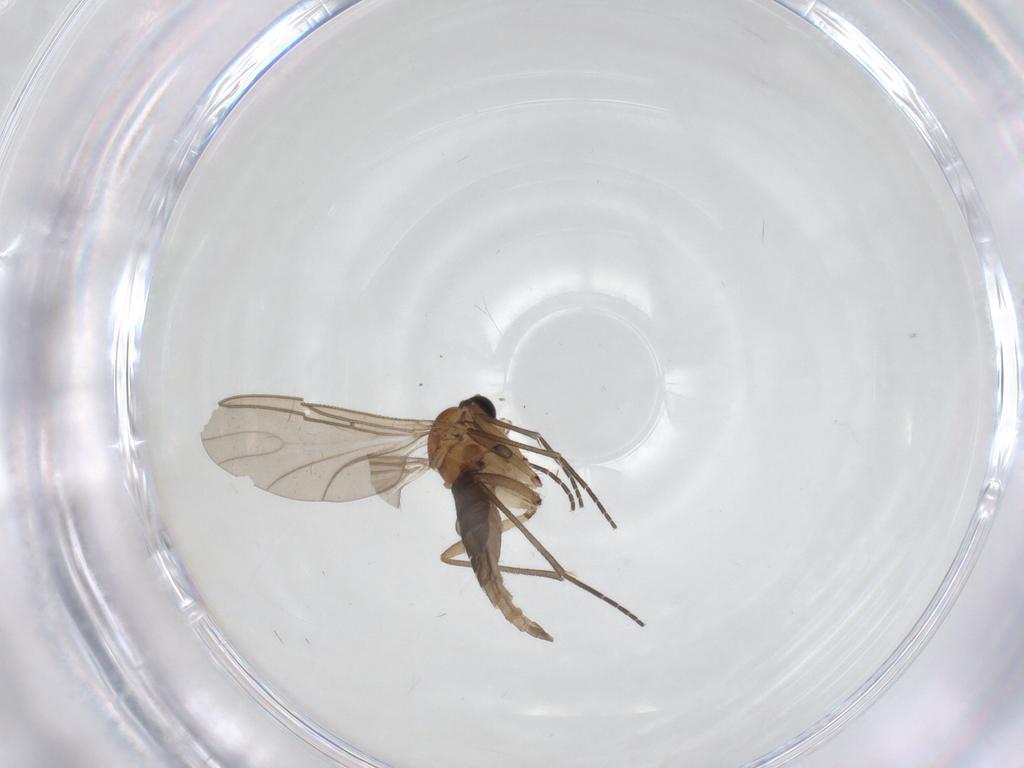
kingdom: Animalia
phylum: Arthropoda
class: Insecta
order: Diptera
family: Sciaridae
